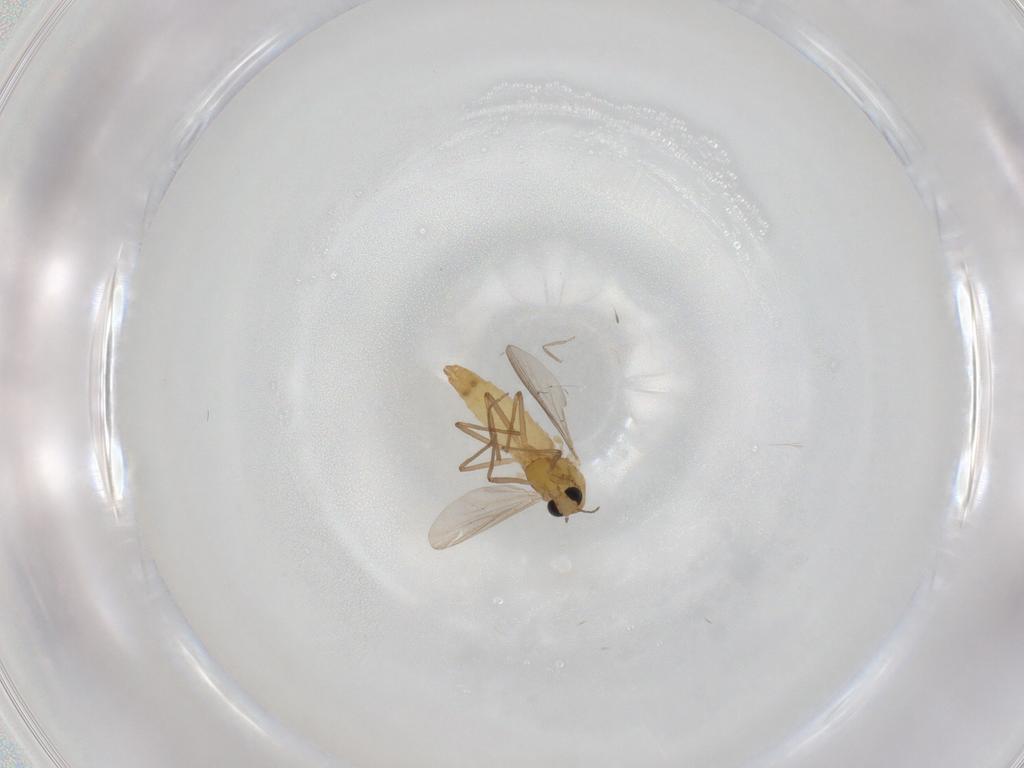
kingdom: Animalia
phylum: Arthropoda
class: Insecta
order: Diptera
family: Chironomidae
